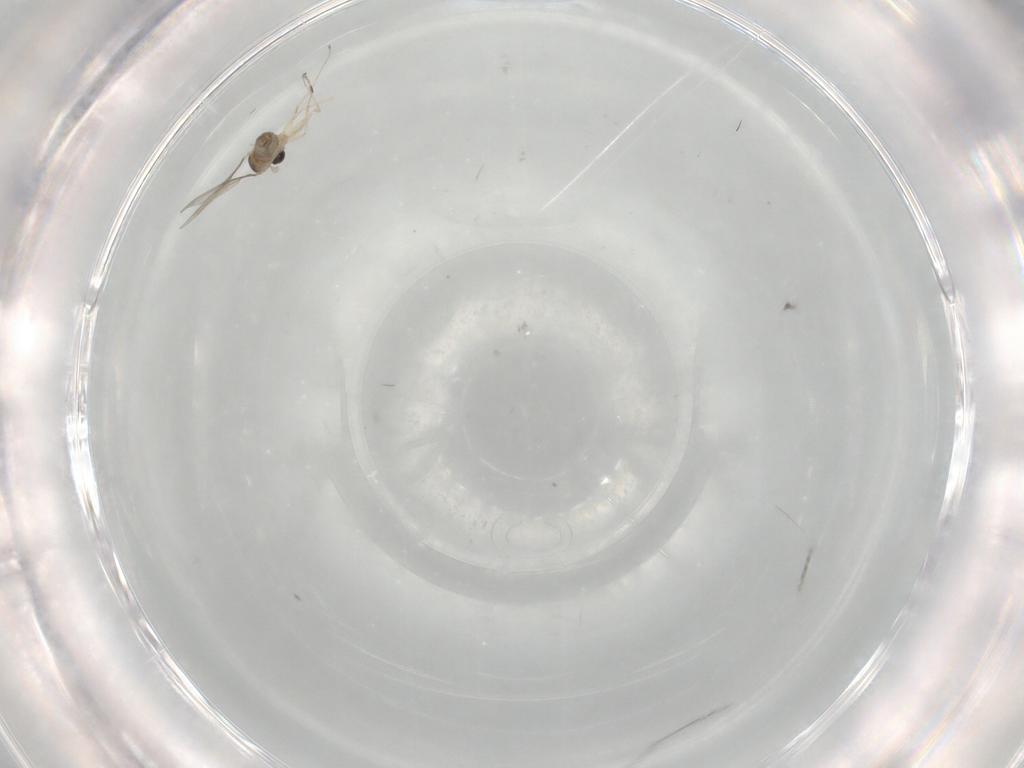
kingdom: Animalia
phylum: Arthropoda
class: Insecta
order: Diptera
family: Cecidomyiidae
